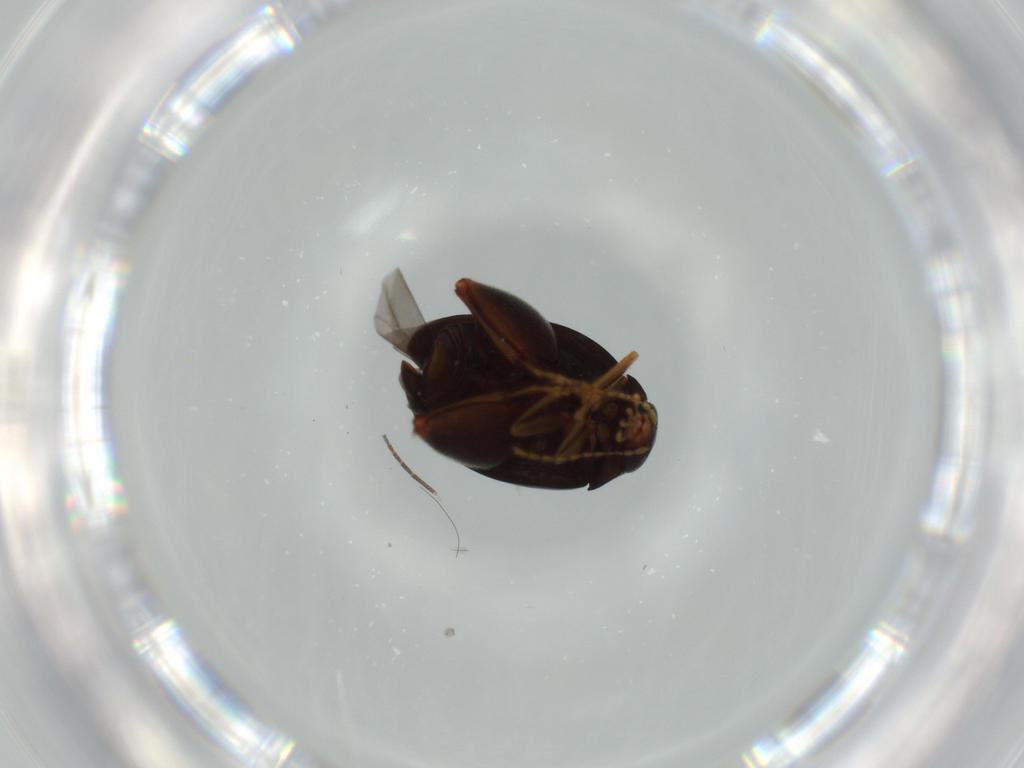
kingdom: Animalia
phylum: Arthropoda
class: Insecta
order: Coleoptera
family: Chrysomelidae
